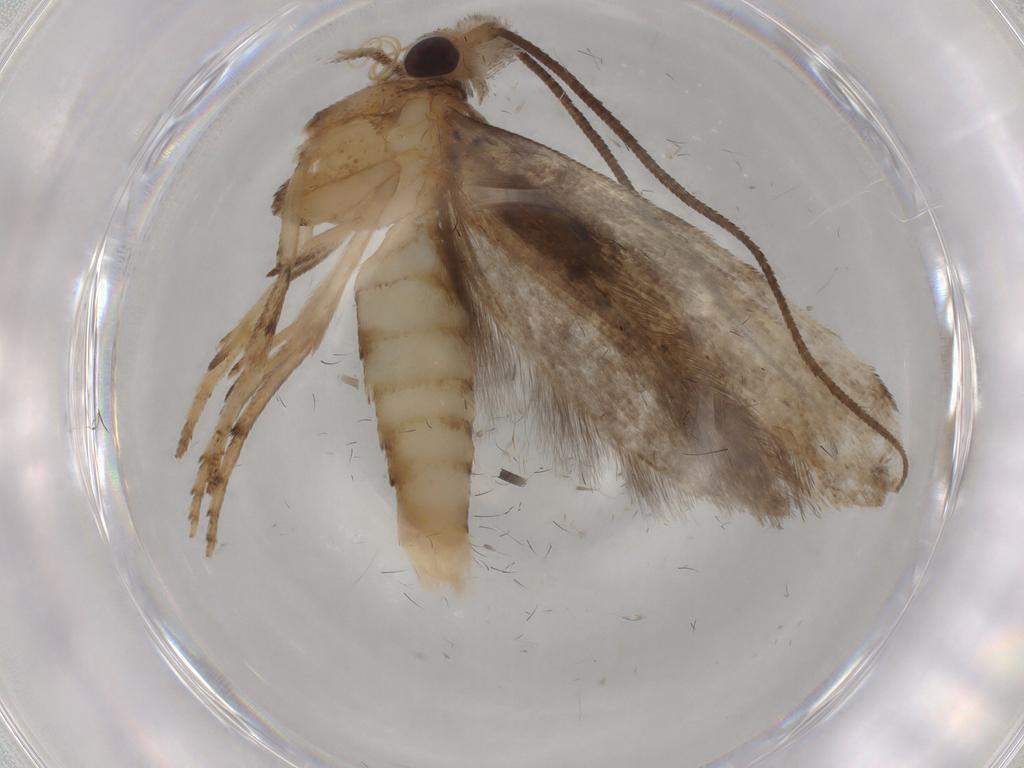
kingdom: Animalia
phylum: Arthropoda
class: Insecta
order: Lepidoptera
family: Yponomeutidae
